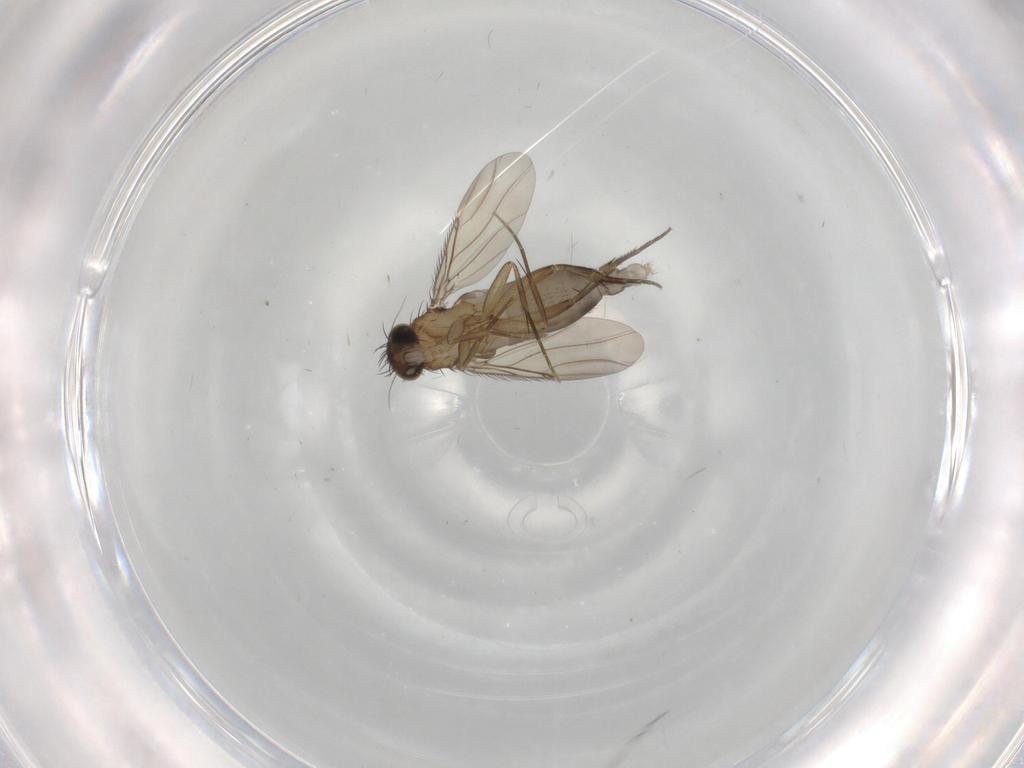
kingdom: Animalia
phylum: Arthropoda
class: Insecta
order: Diptera
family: Phoridae
